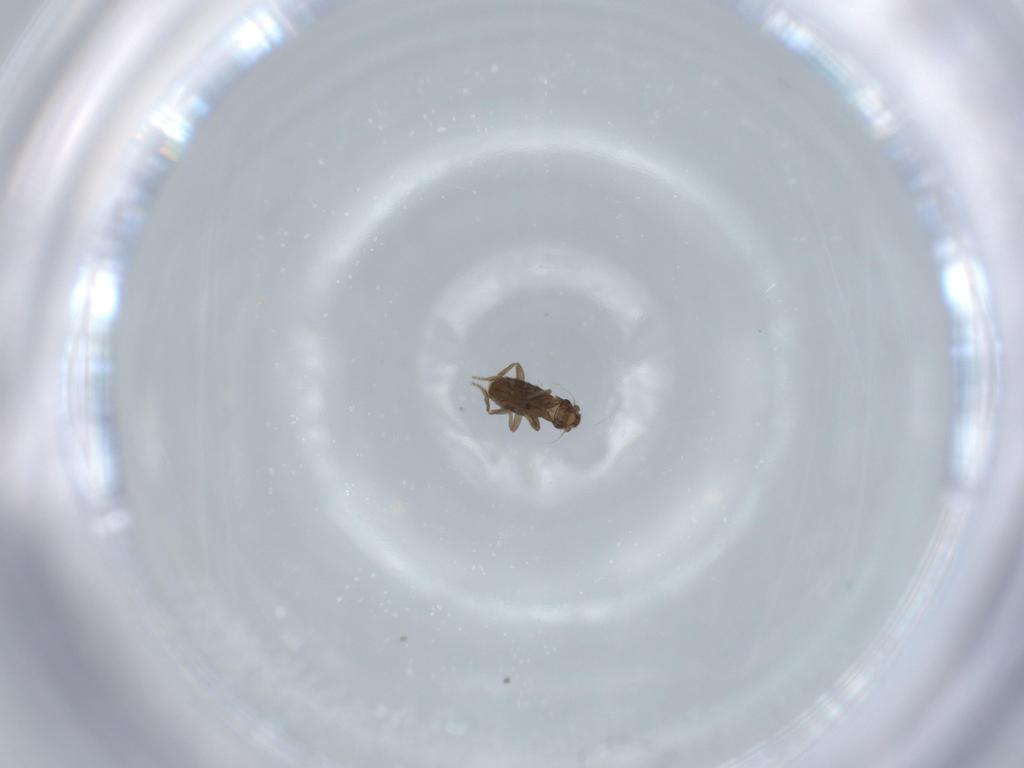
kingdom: Animalia
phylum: Arthropoda
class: Insecta
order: Diptera
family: Phoridae
